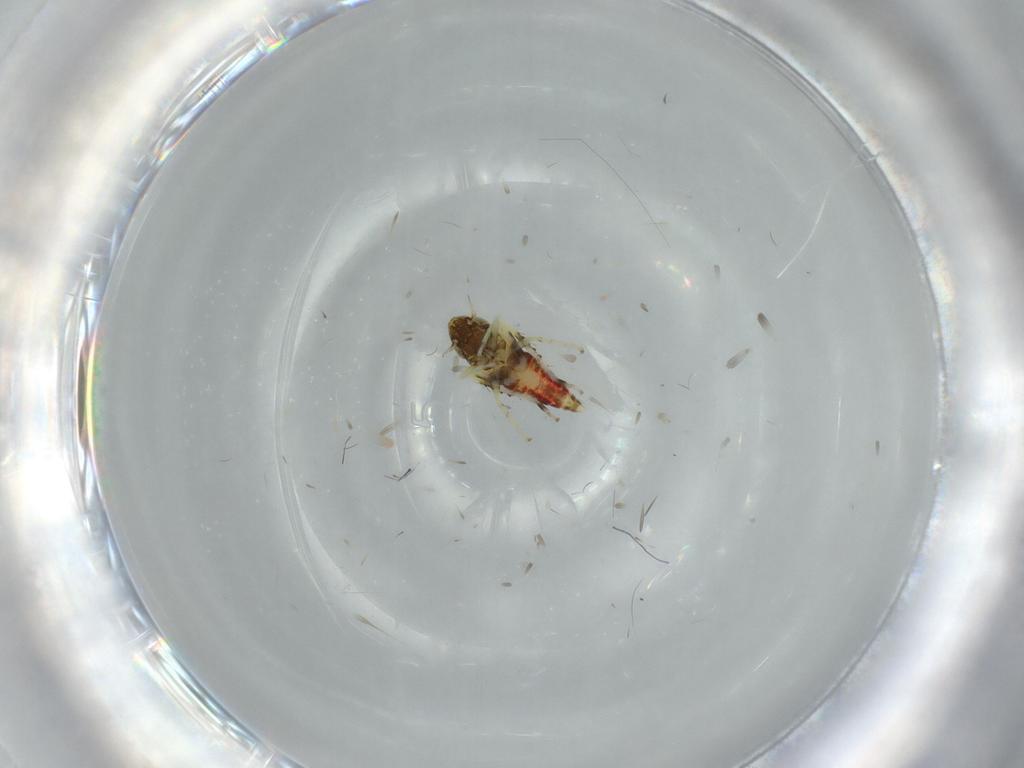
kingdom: Animalia
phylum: Arthropoda
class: Insecta
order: Hemiptera
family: Cicadellidae
